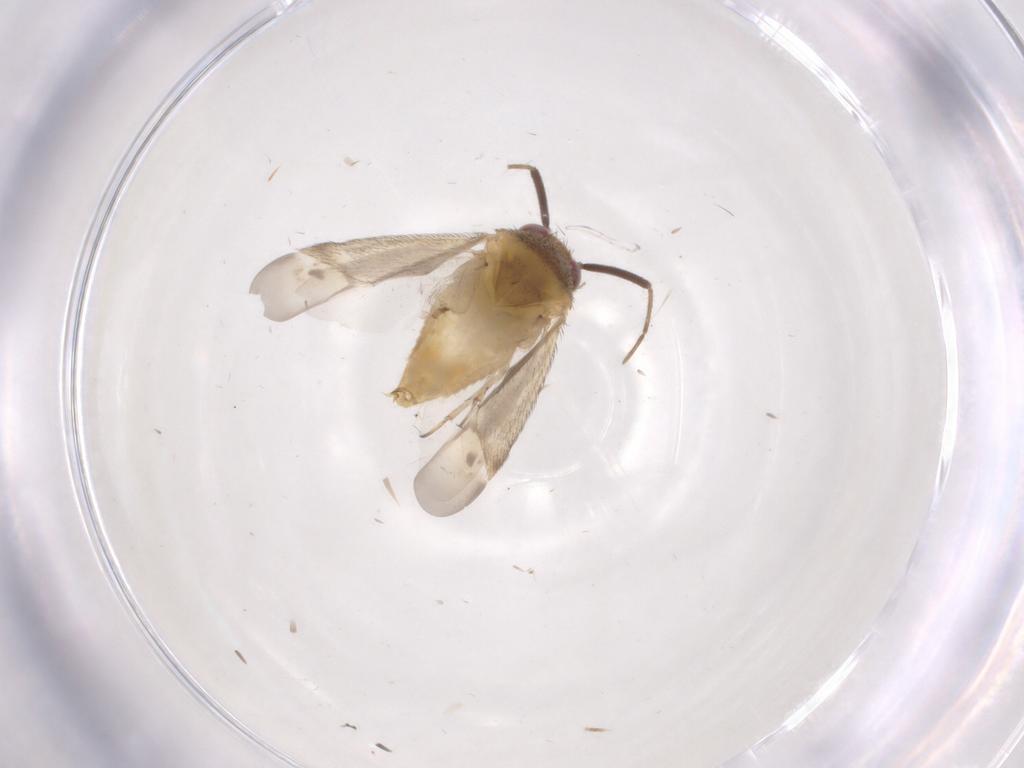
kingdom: Animalia
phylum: Arthropoda
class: Insecta
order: Hemiptera
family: Miridae
